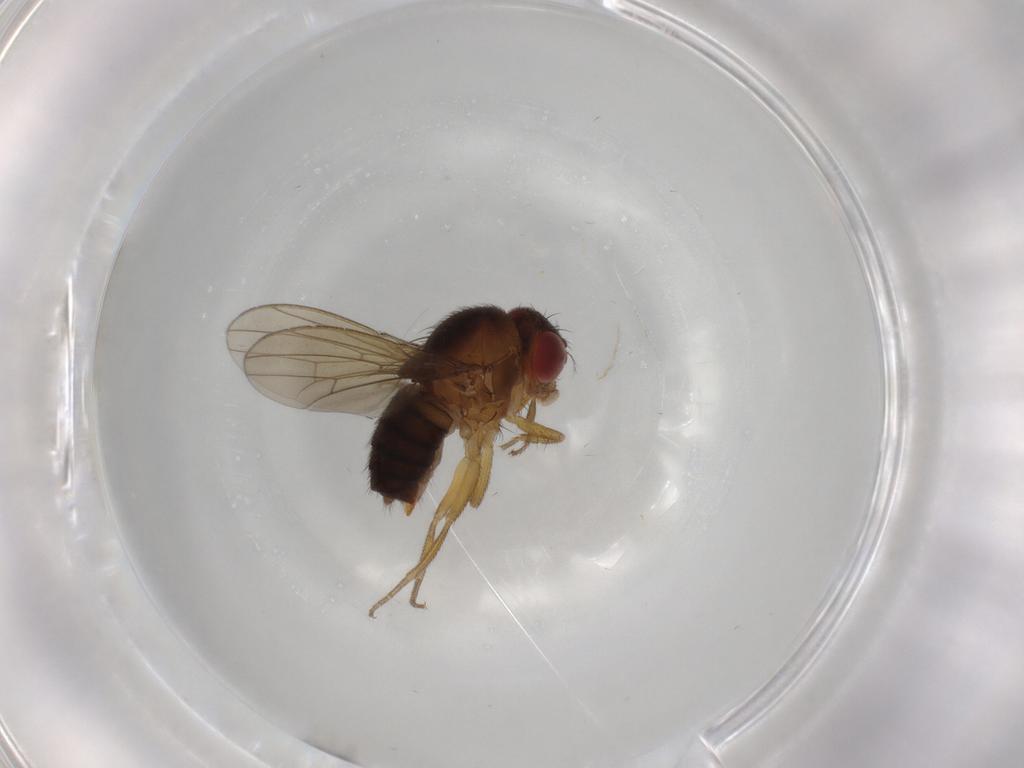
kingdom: Animalia
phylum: Arthropoda
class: Insecta
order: Diptera
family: Drosophilidae
